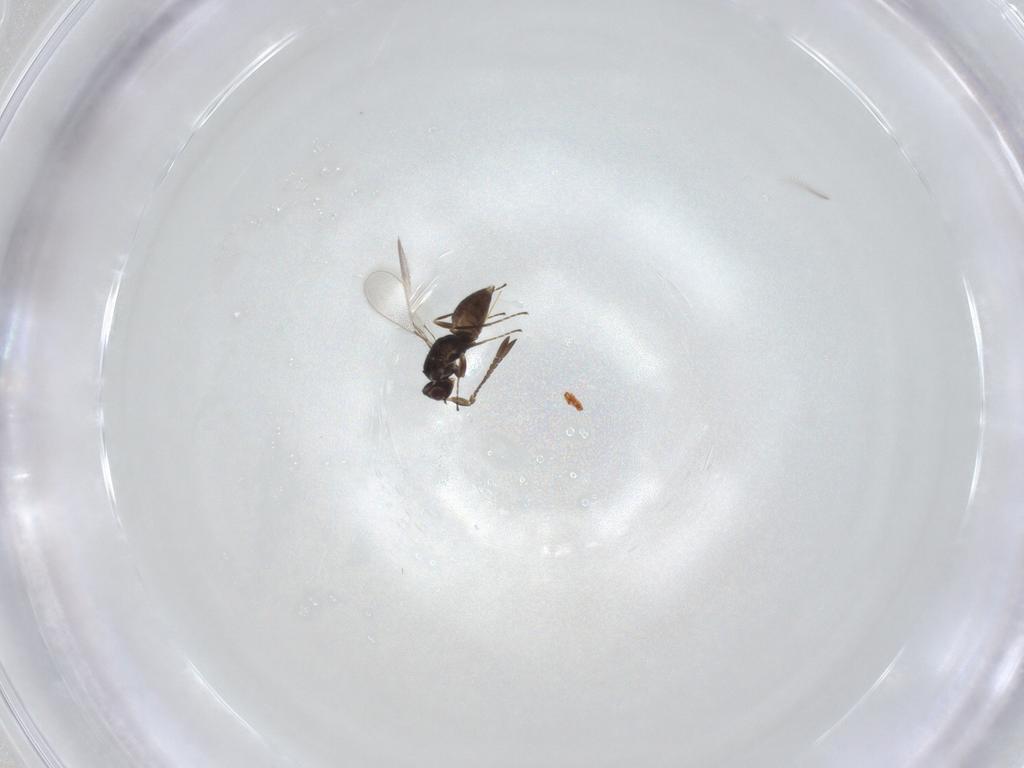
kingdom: Animalia
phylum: Arthropoda
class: Insecta
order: Hymenoptera
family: Mymaridae
